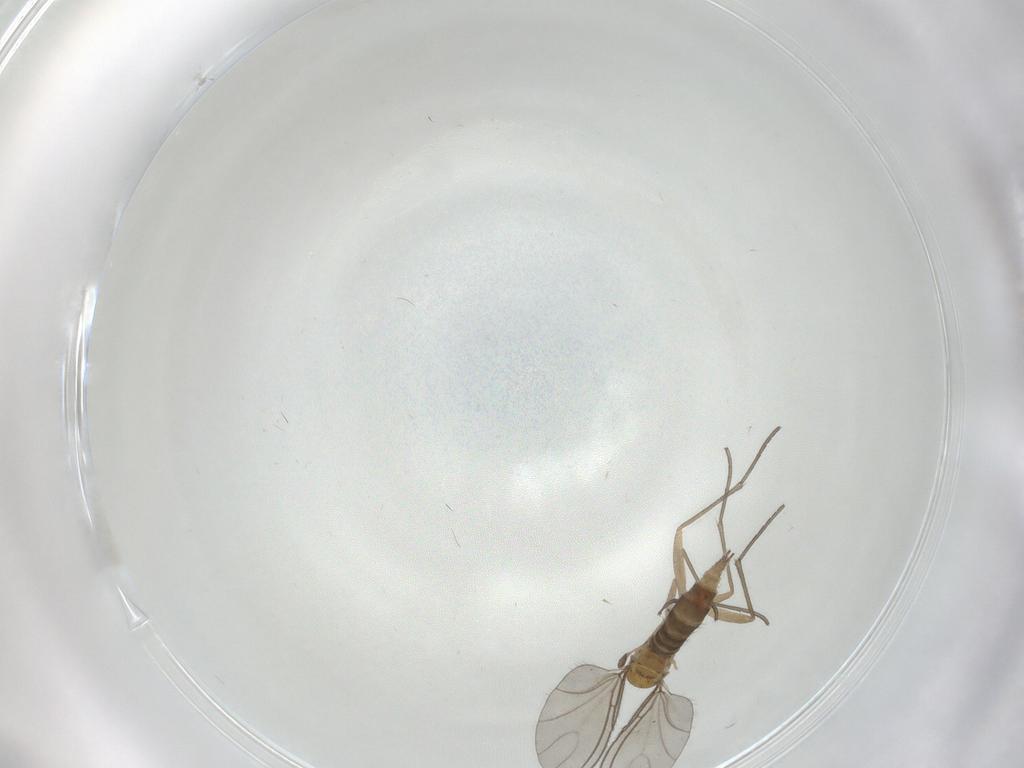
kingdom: Animalia
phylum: Arthropoda
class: Insecta
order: Diptera
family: Sciaridae
